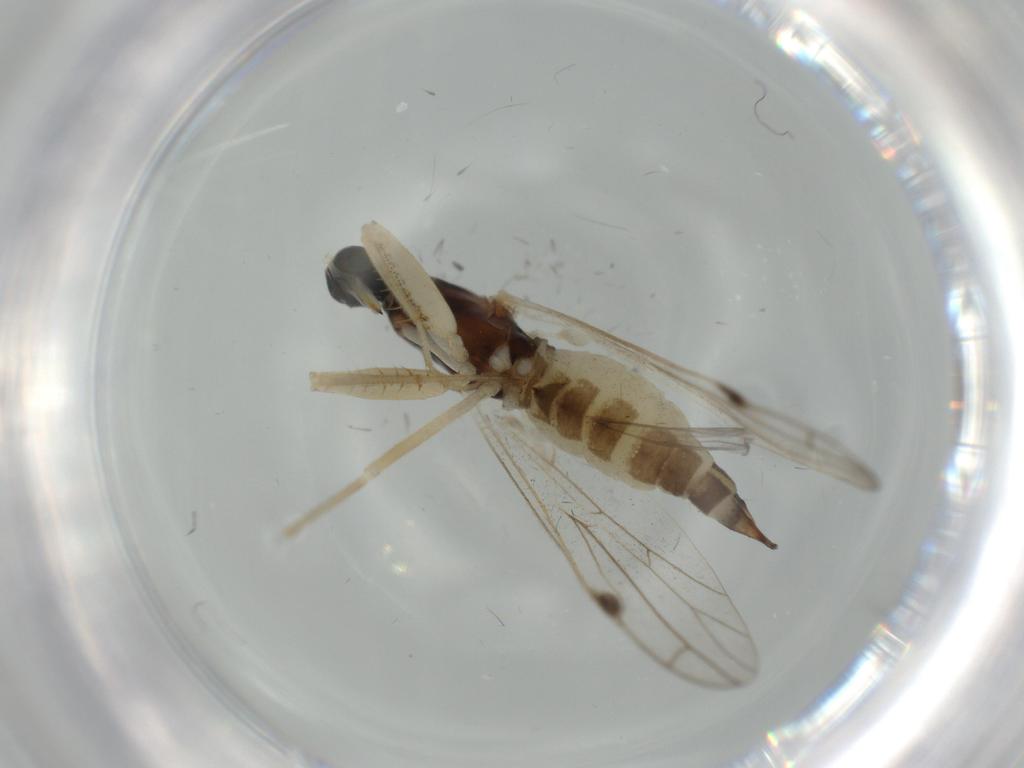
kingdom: Animalia
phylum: Arthropoda
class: Insecta
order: Diptera
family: Empididae
